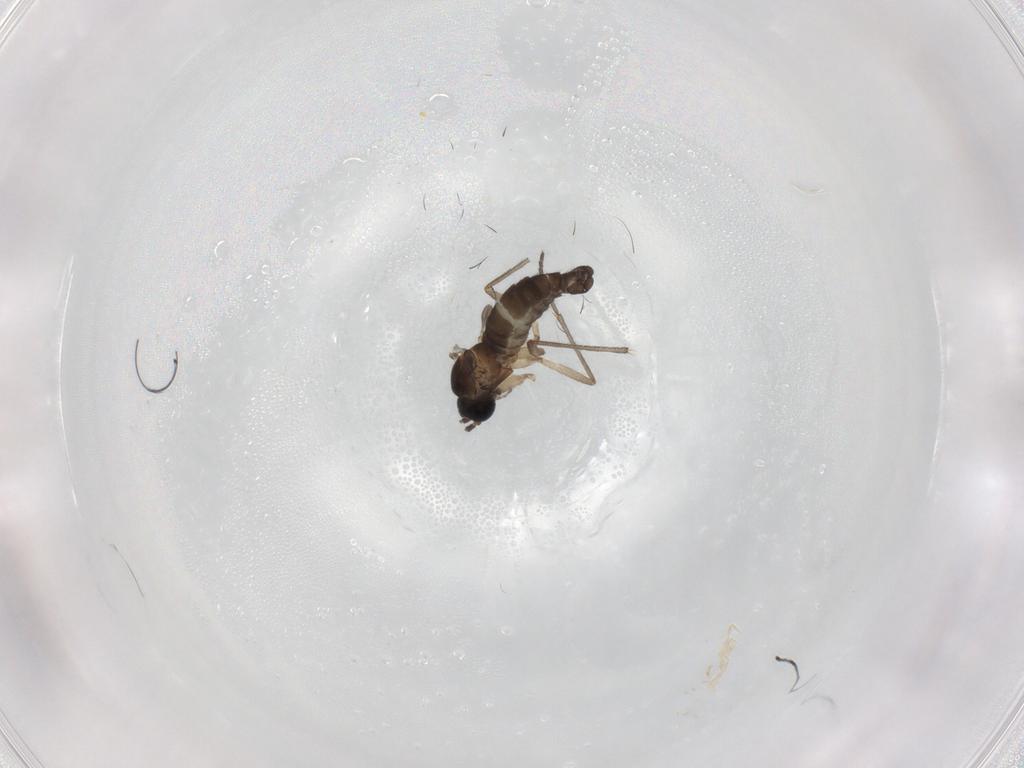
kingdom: Animalia
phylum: Arthropoda
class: Insecta
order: Diptera
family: Sciaridae
